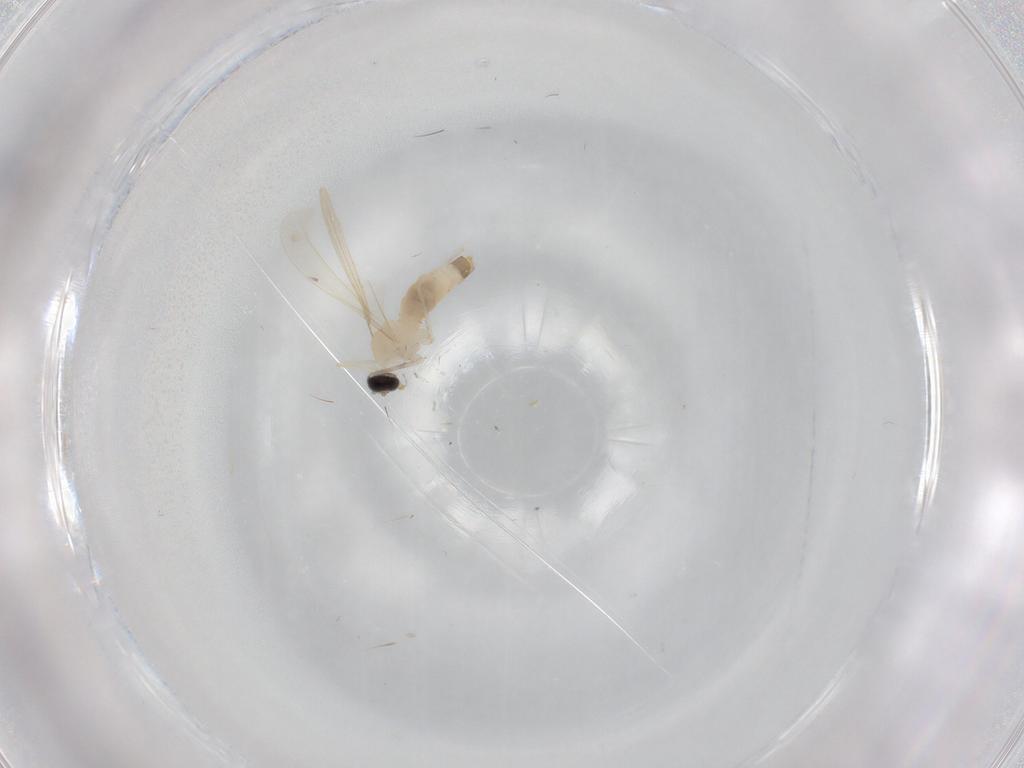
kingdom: Animalia
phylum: Arthropoda
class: Insecta
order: Diptera
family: Cecidomyiidae
